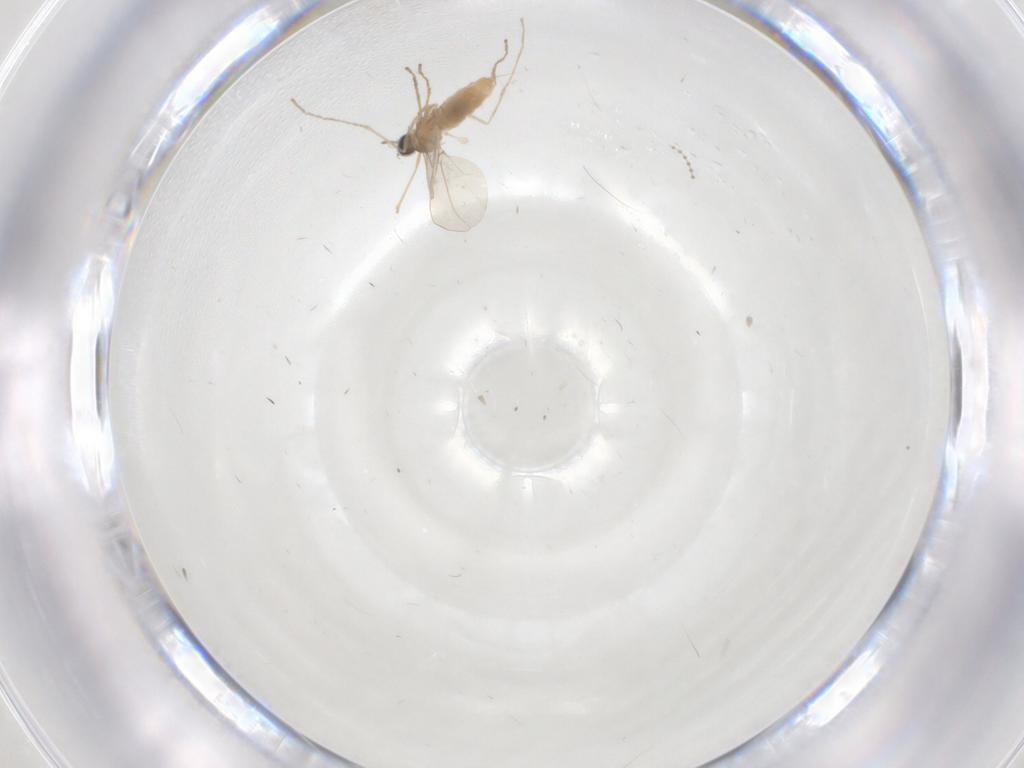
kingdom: Animalia
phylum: Arthropoda
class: Insecta
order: Diptera
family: Cecidomyiidae
